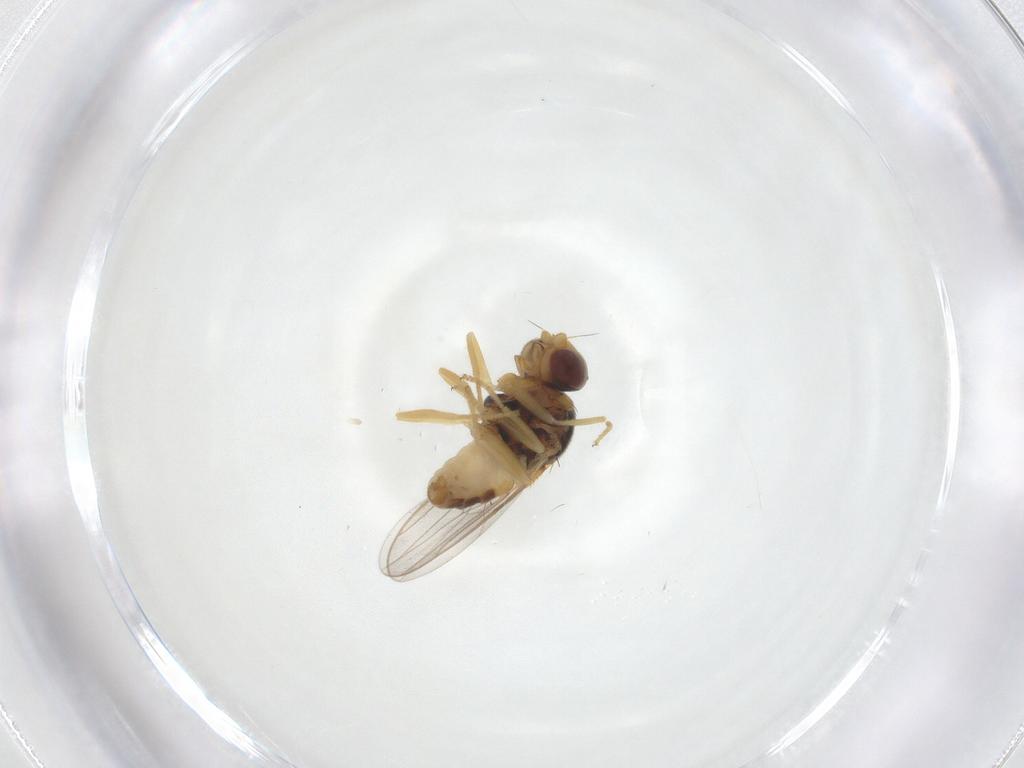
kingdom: Animalia
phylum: Arthropoda
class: Insecta
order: Diptera
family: Chloropidae
